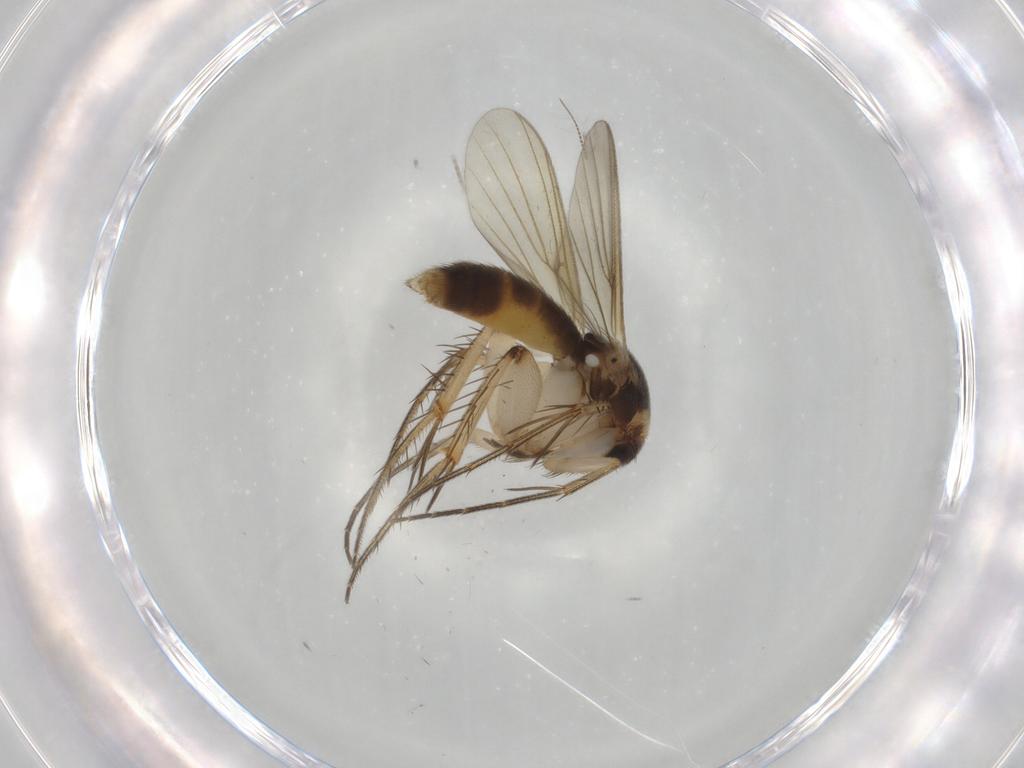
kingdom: Animalia
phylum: Arthropoda
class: Insecta
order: Diptera
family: Mycetophilidae
